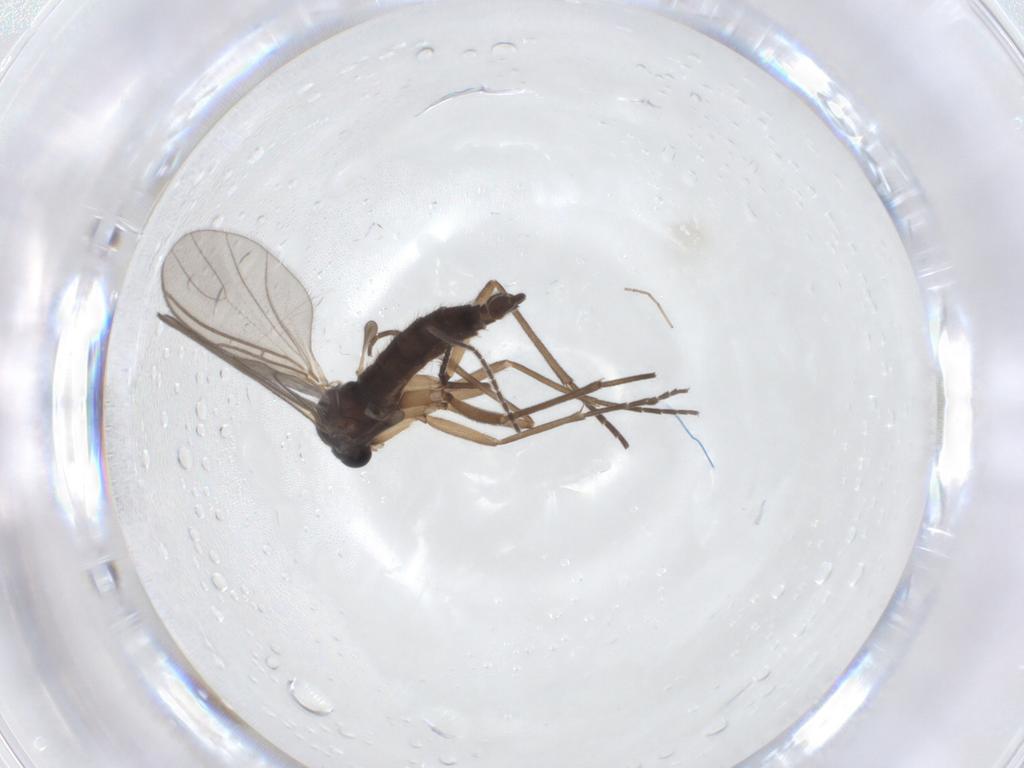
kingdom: Animalia
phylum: Arthropoda
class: Insecta
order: Diptera
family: Sciaridae
